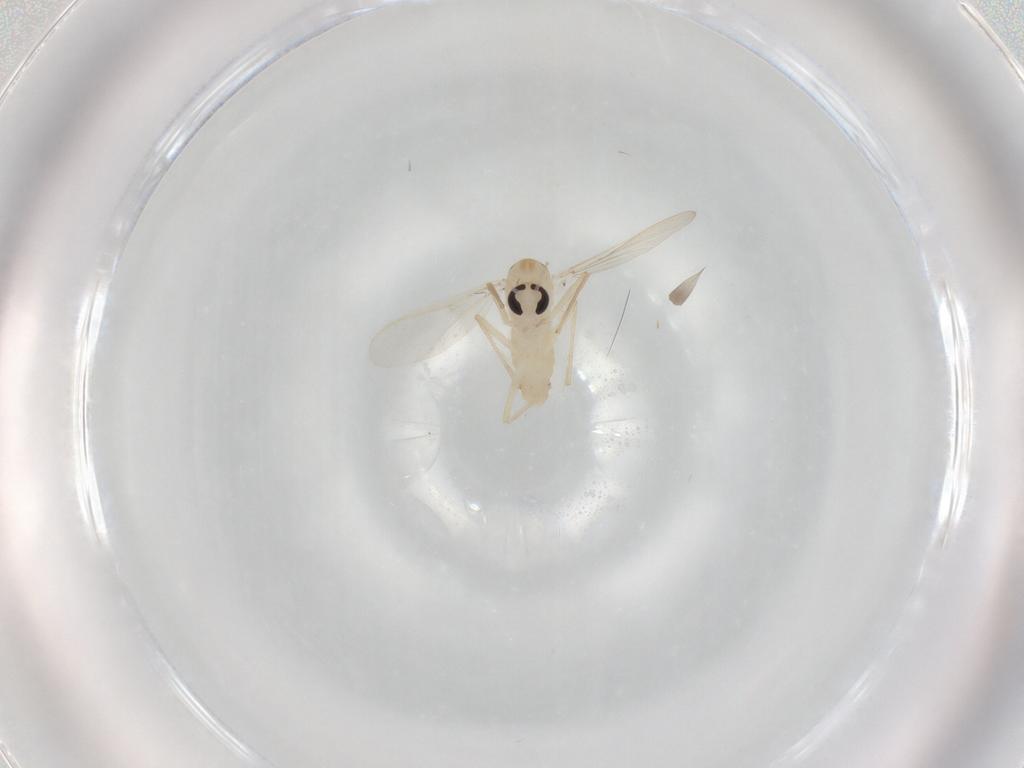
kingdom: Animalia
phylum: Arthropoda
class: Insecta
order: Diptera
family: Cecidomyiidae
